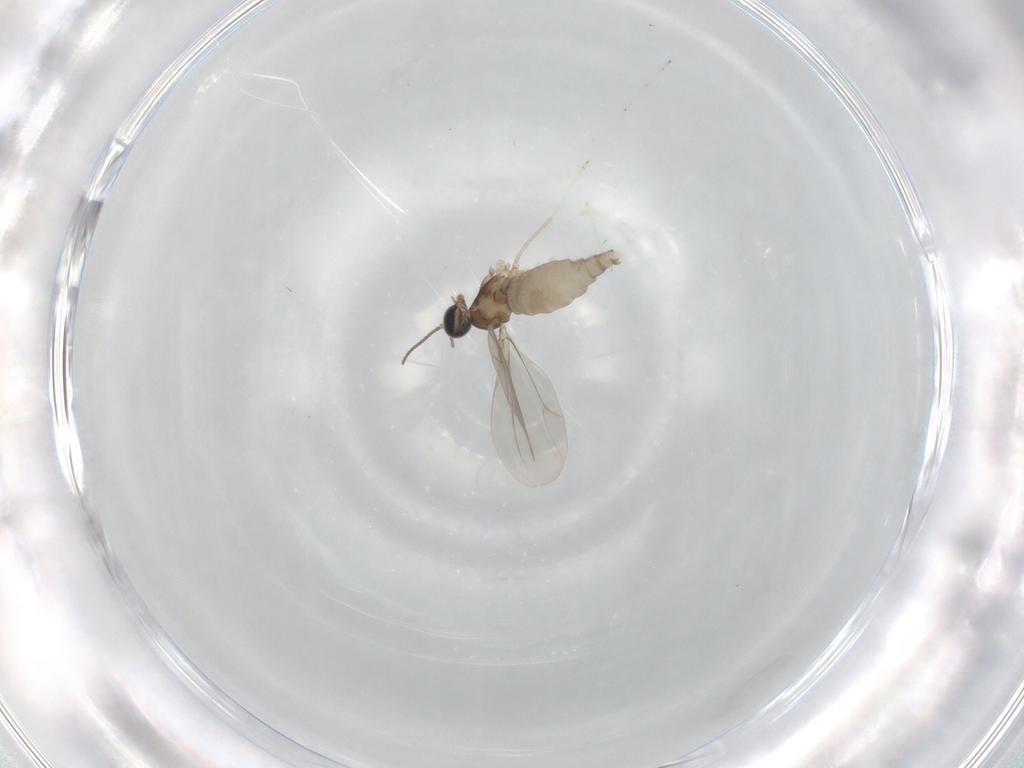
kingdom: Animalia
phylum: Arthropoda
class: Insecta
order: Diptera
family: Cecidomyiidae
